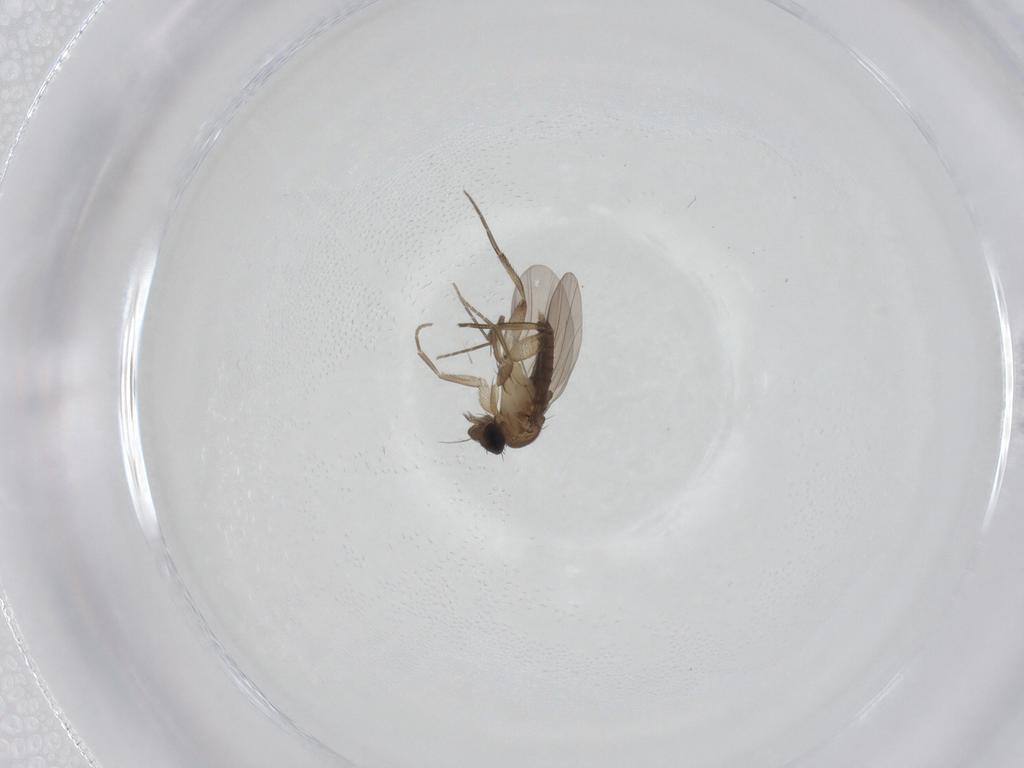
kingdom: Animalia
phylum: Arthropoda
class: Insecta
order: Diptera
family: Phoridae
